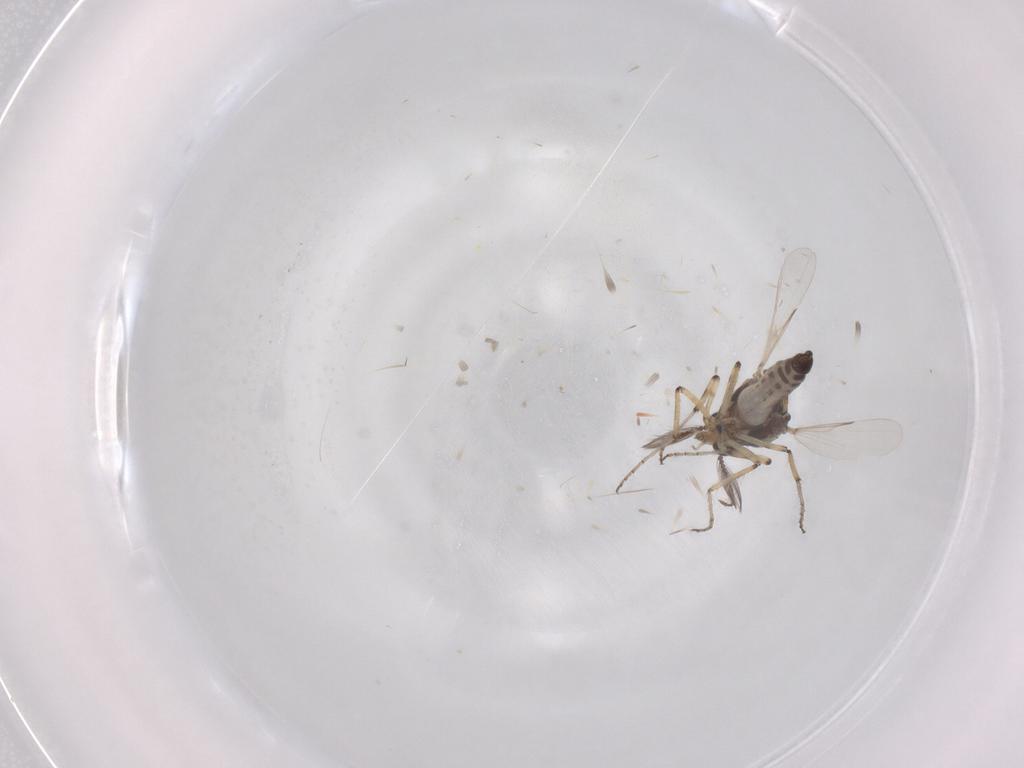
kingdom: Animalia
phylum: Arthropoda
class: Insecta
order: Diptera
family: Ceratopogonidae
